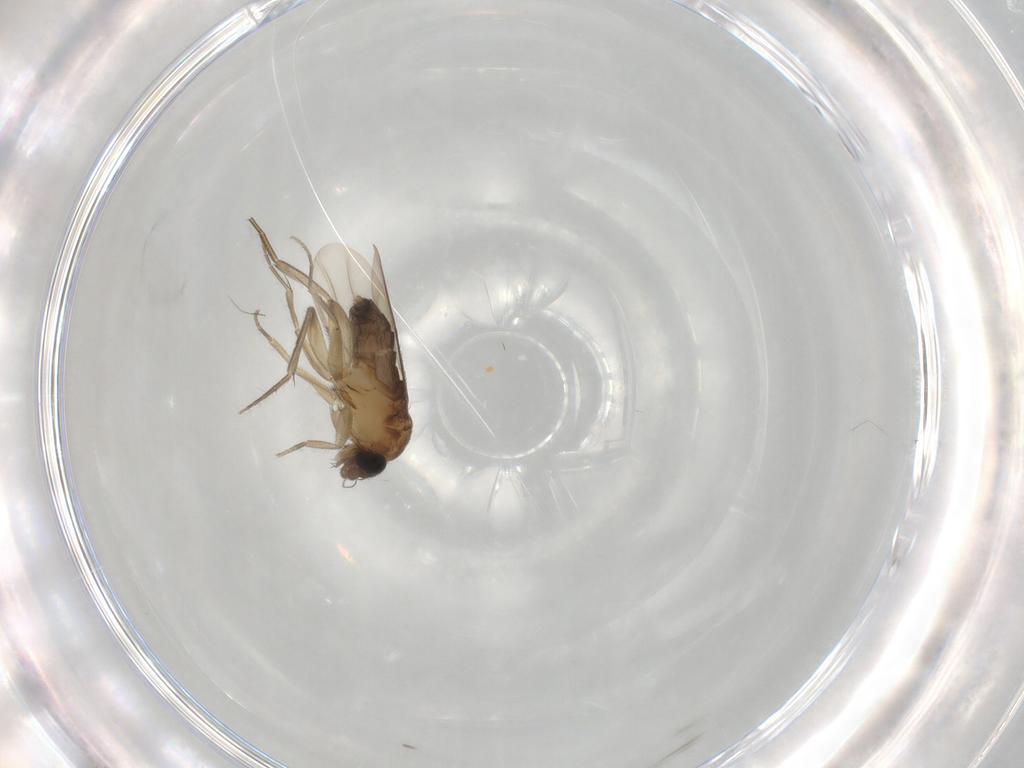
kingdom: Animalia
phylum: Arthropoda
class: Insecta
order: Diptera
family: Phoridae
